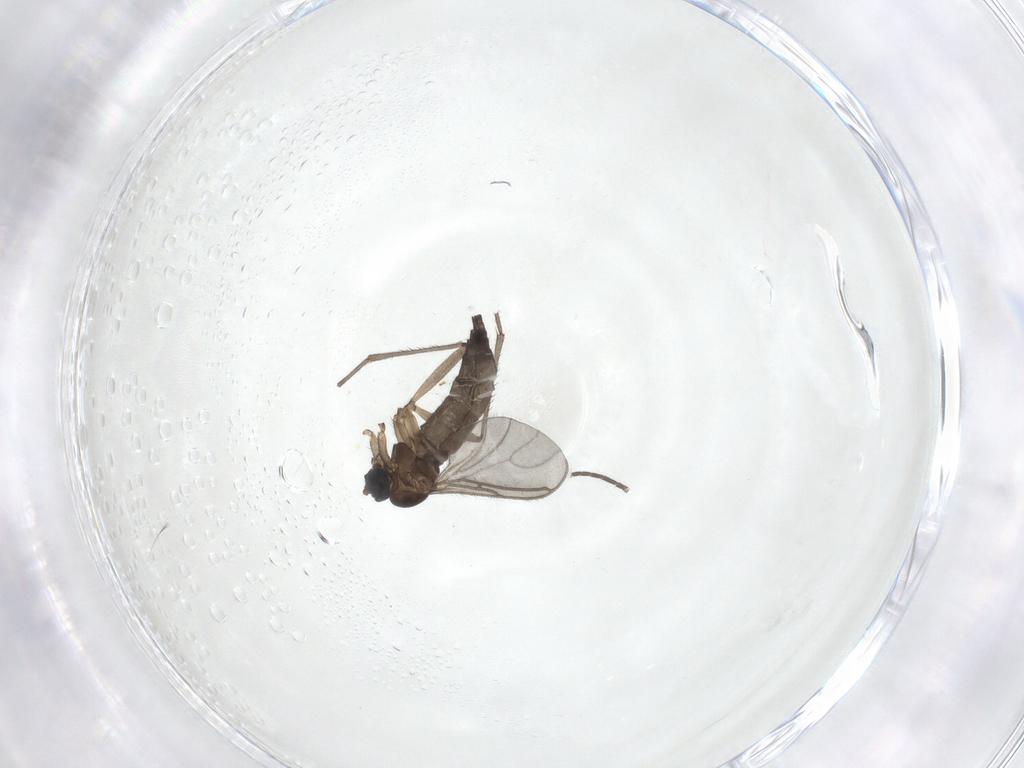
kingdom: Animalia
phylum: Arthropoda
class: Insecta
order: Diptera
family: Sciaridae
